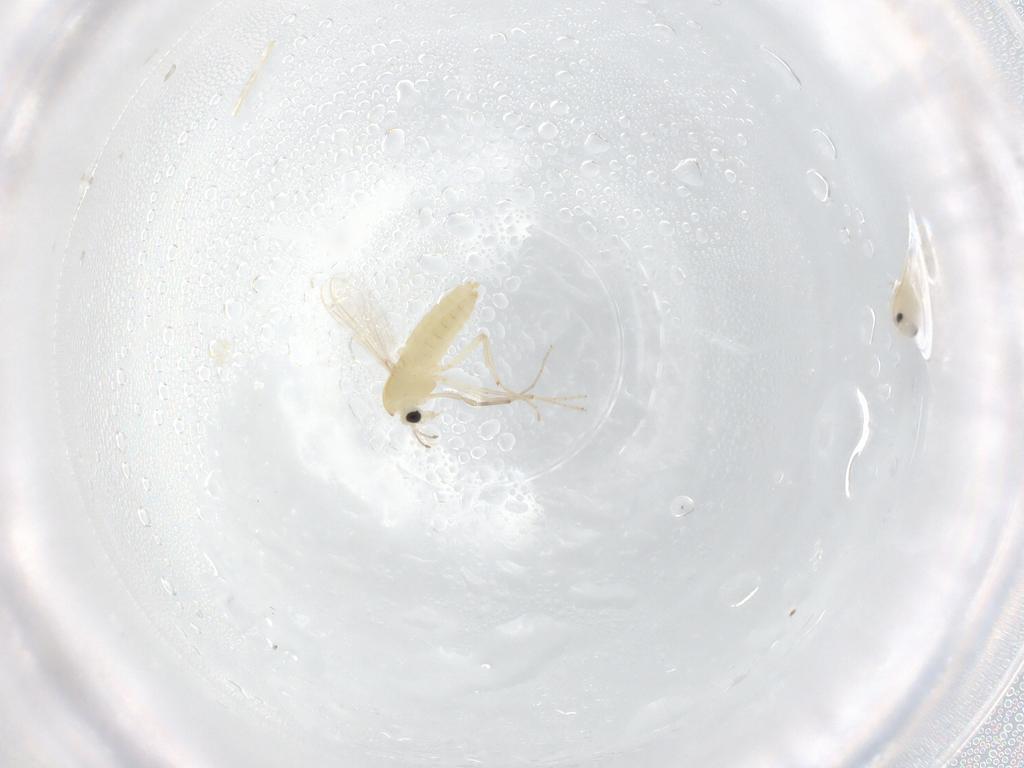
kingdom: Animalia
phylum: Arthropoda
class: Insecta
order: Diptera
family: Chironomidae
